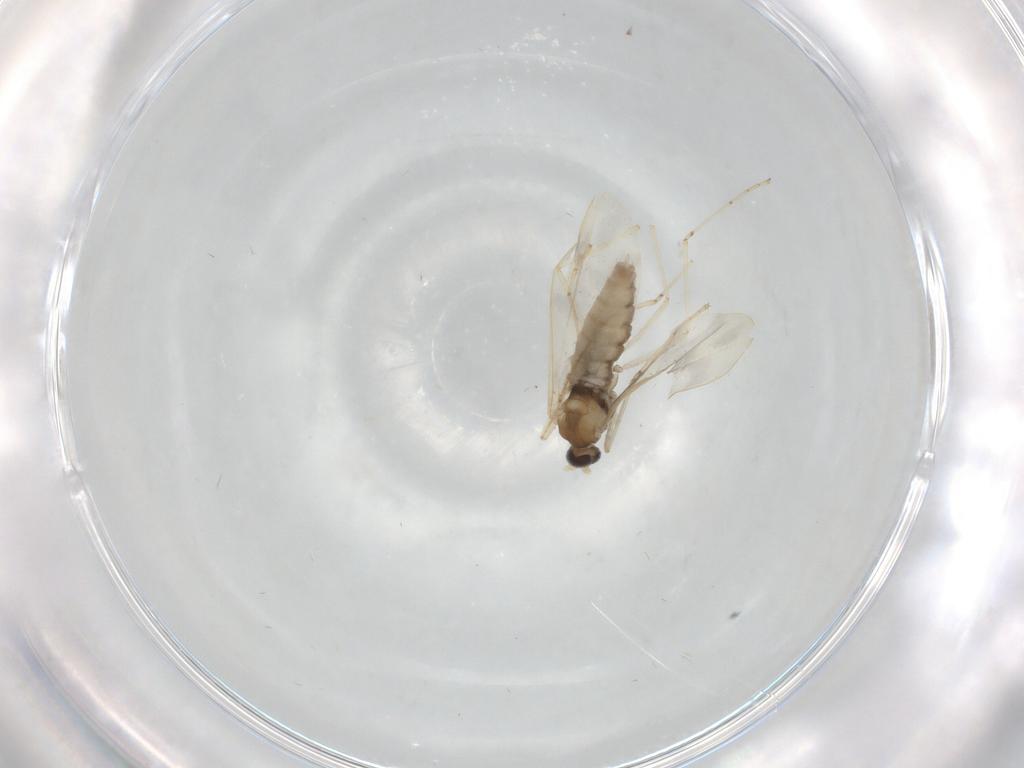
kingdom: Animalia
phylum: Arthropoda
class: Insecta
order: Diptera
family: Cecidomyiidae
